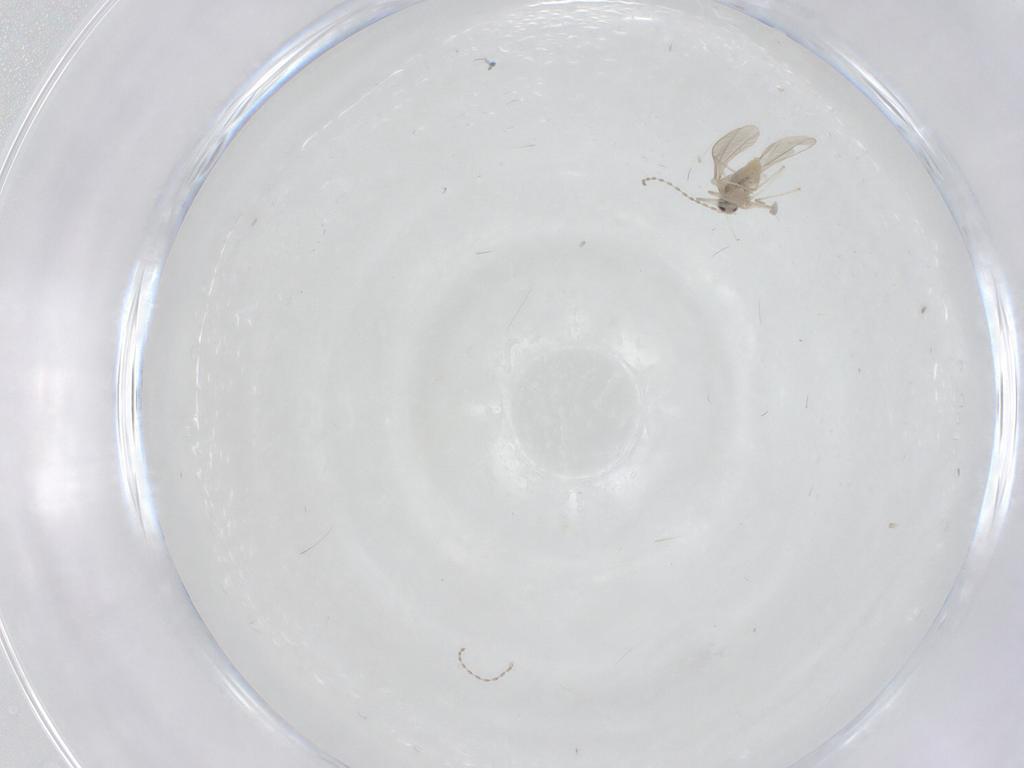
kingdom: Animalia
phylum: Arthropoda
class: Insecta
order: Diptera
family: Cecidomyiidae
